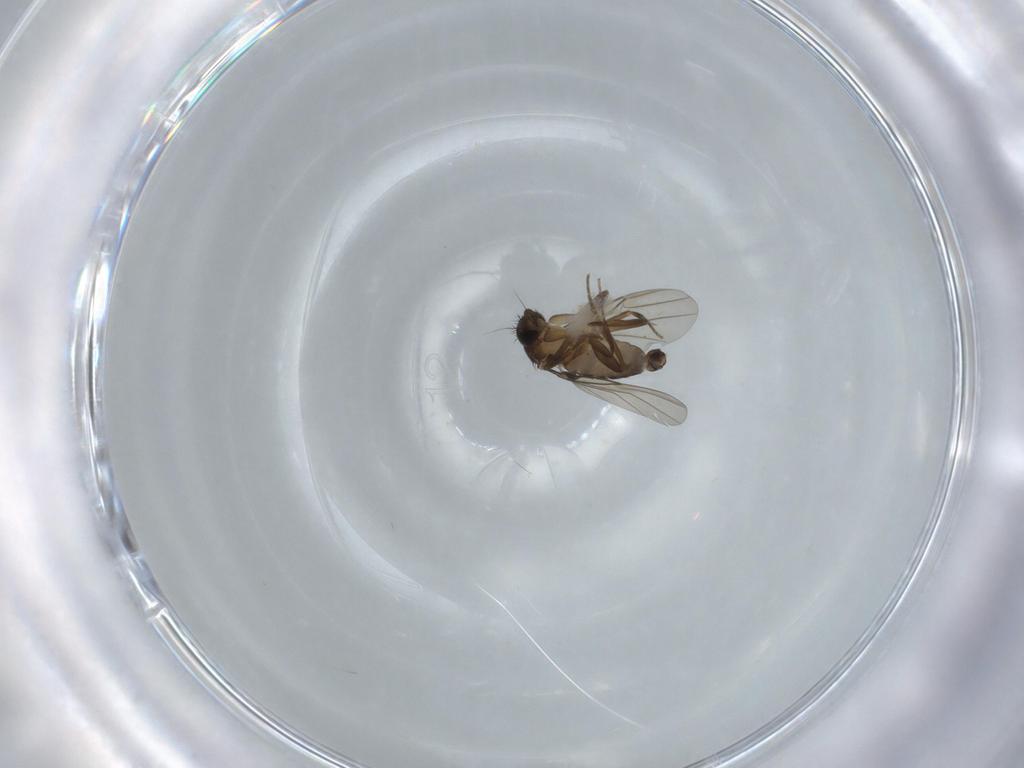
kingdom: Animalia
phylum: Arthropoda
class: Insecta
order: Diptera
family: Phoridae
